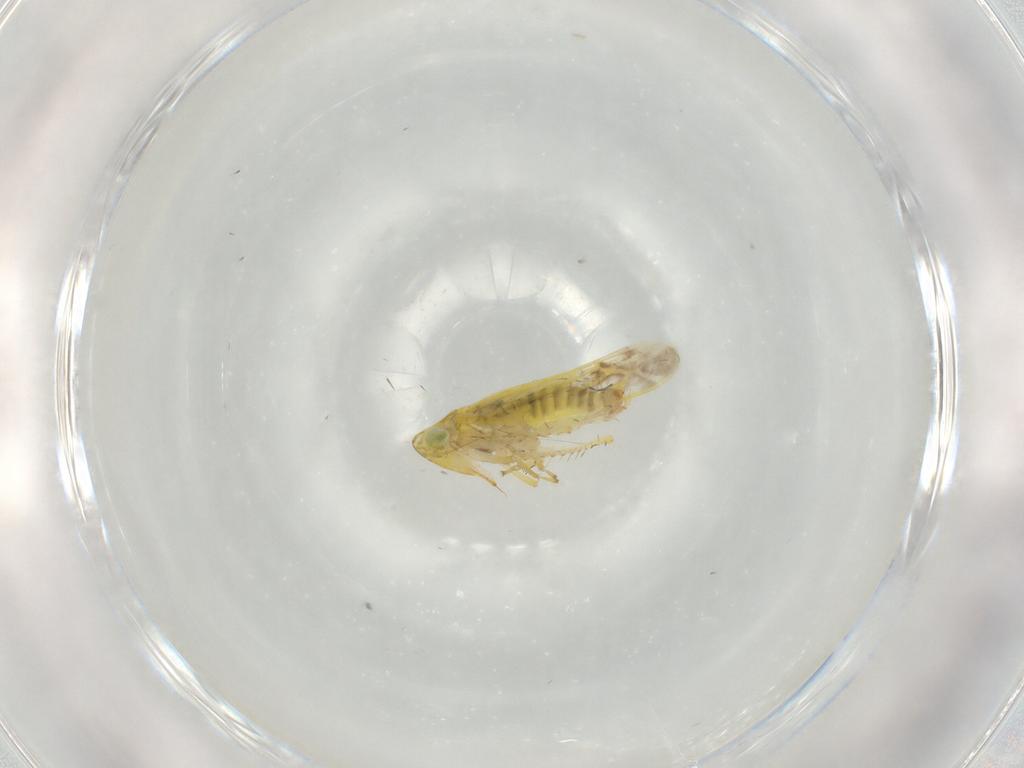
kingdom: Animalia
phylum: Arthropoda
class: Insecta
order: Hemiptera
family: Cicadellidae
